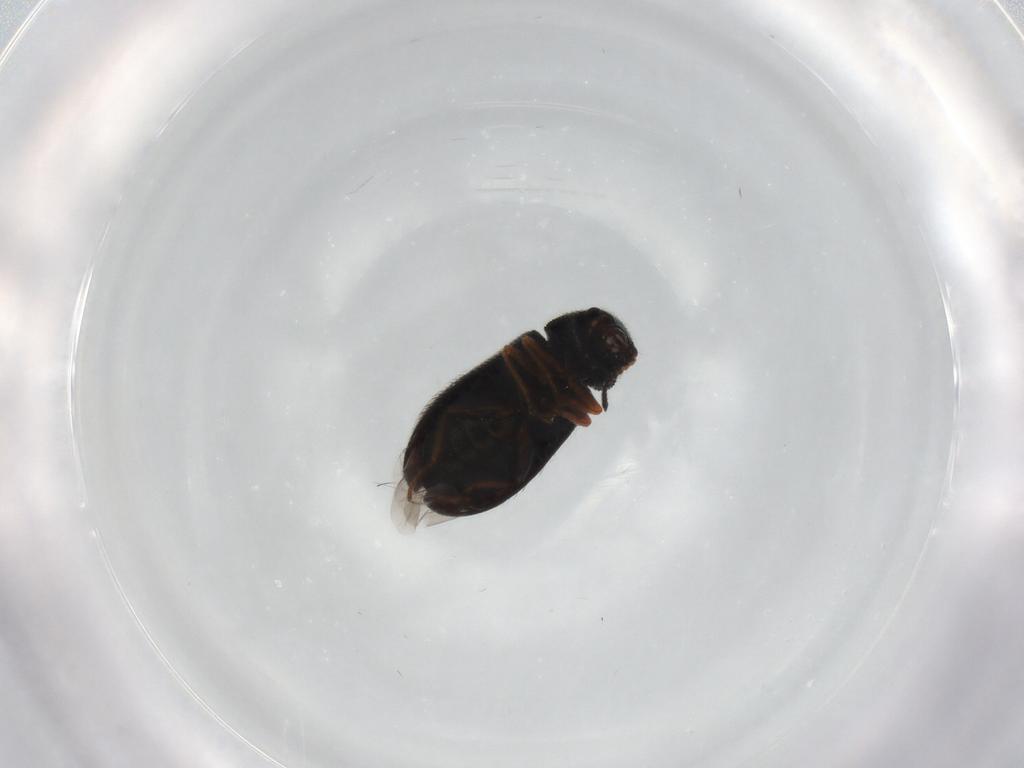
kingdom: Animalia
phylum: Arthropoda
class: Insecta
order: Coleoptera
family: Melyridae
